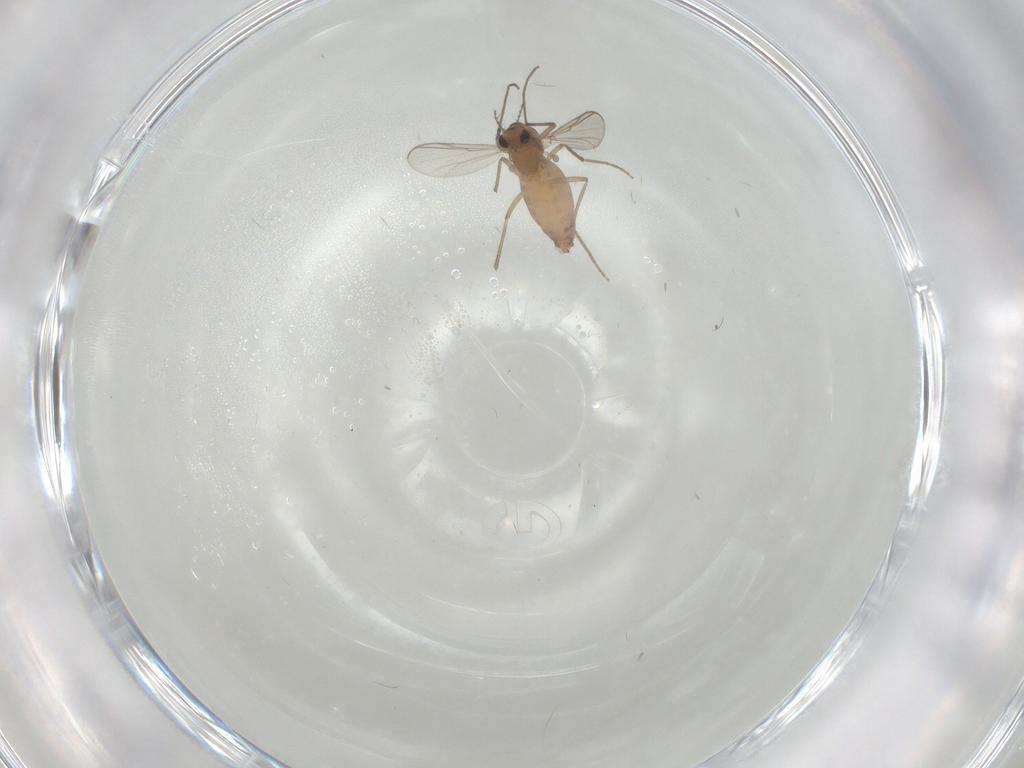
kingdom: Animalia
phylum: Arthropoda
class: Insecta
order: Diptera
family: Chironomidae
